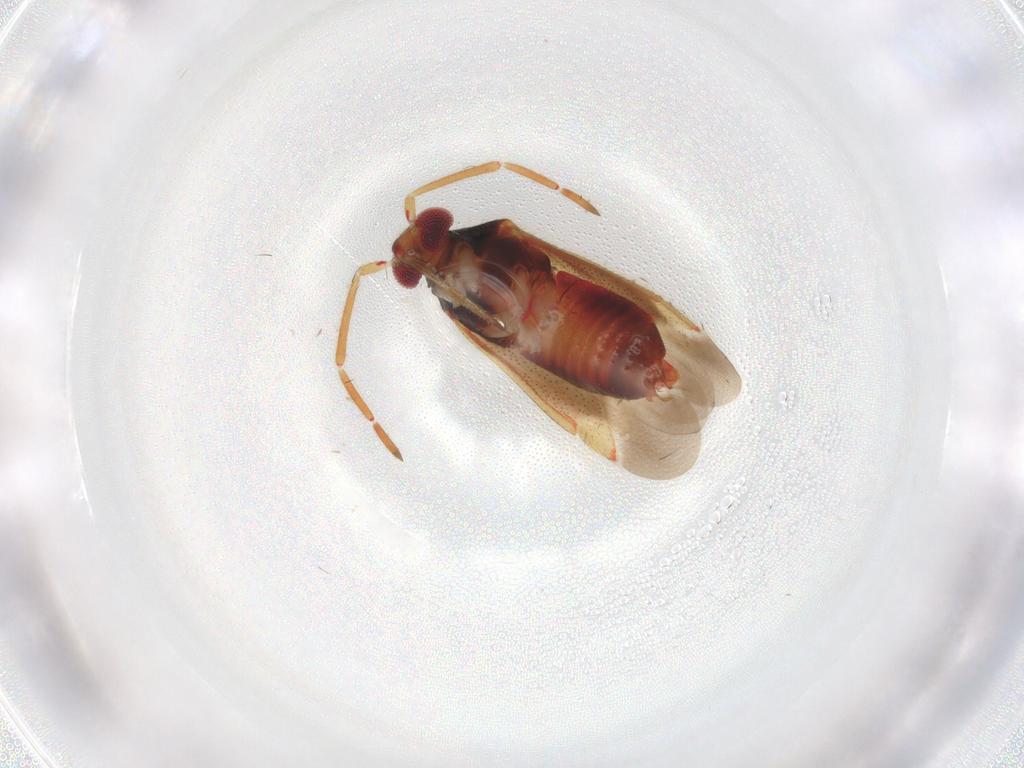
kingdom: Animalia
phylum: Arthropoda
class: Insecta
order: Hemiptera
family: Miridae
